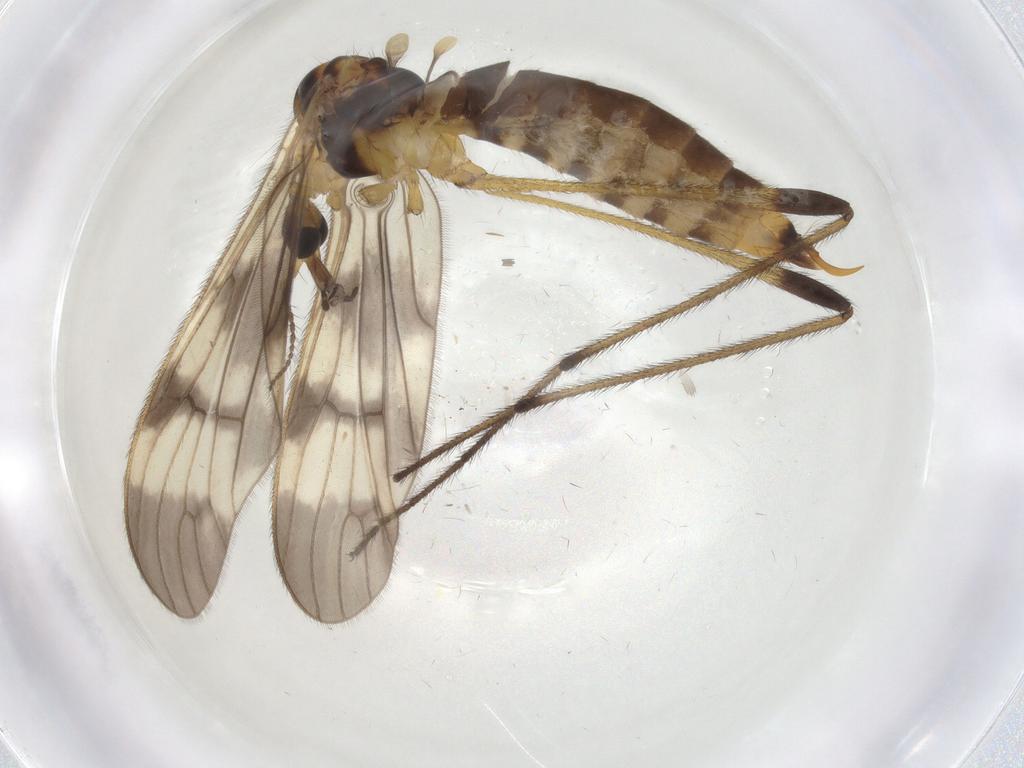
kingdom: Animalia
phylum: Arthropoda
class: Insecta
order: Diptera
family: Limoniidae
